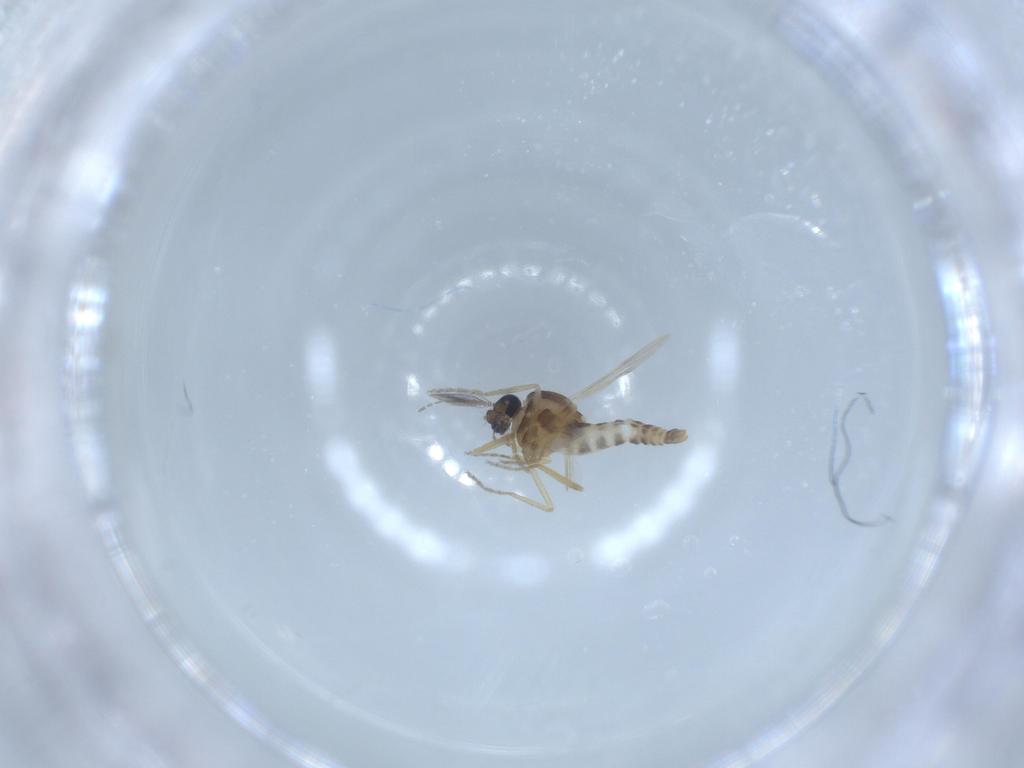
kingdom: Animalia
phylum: Arthropoda
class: Insecta
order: Diptera
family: Ceratopogonidae
